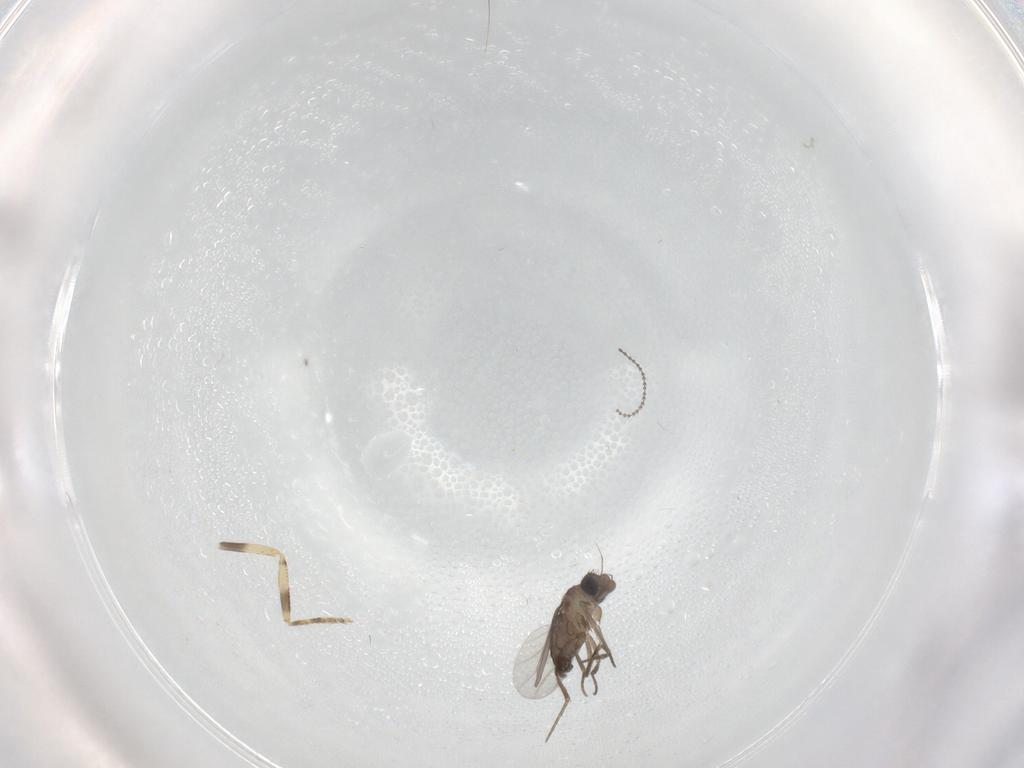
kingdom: Animalia
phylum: Arthropoda
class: Insecta
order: Diptera
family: Ceratopogonidae
